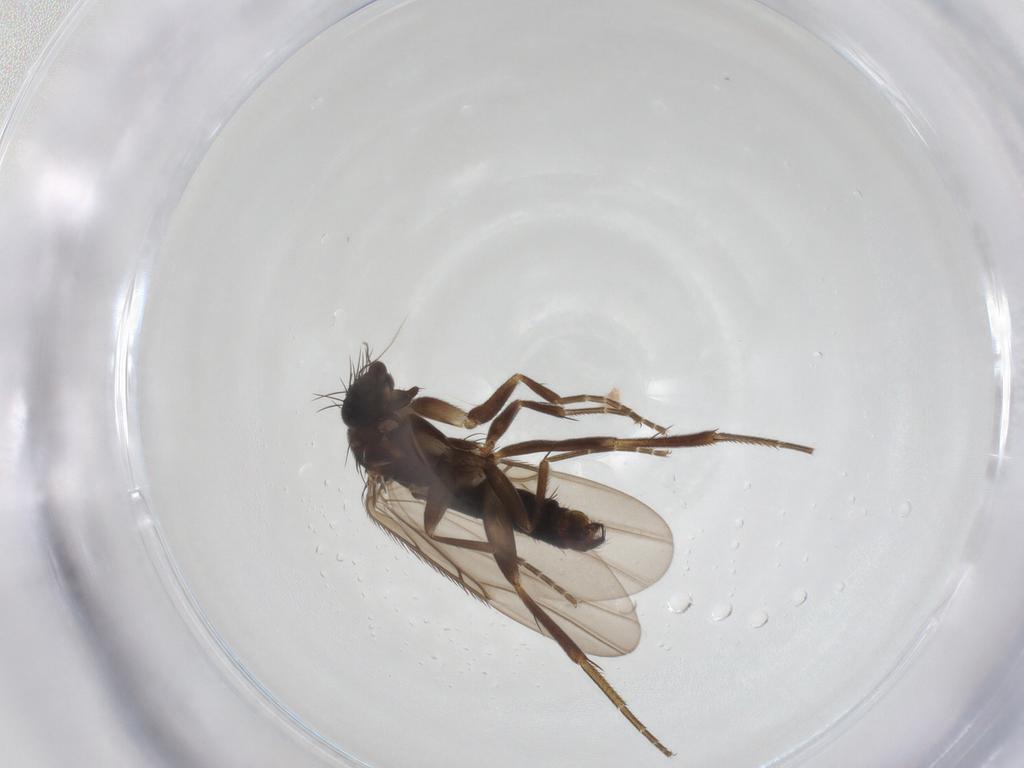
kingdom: Animalia
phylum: Arthropoda
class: Insecta
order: Diptera
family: Phoridae
